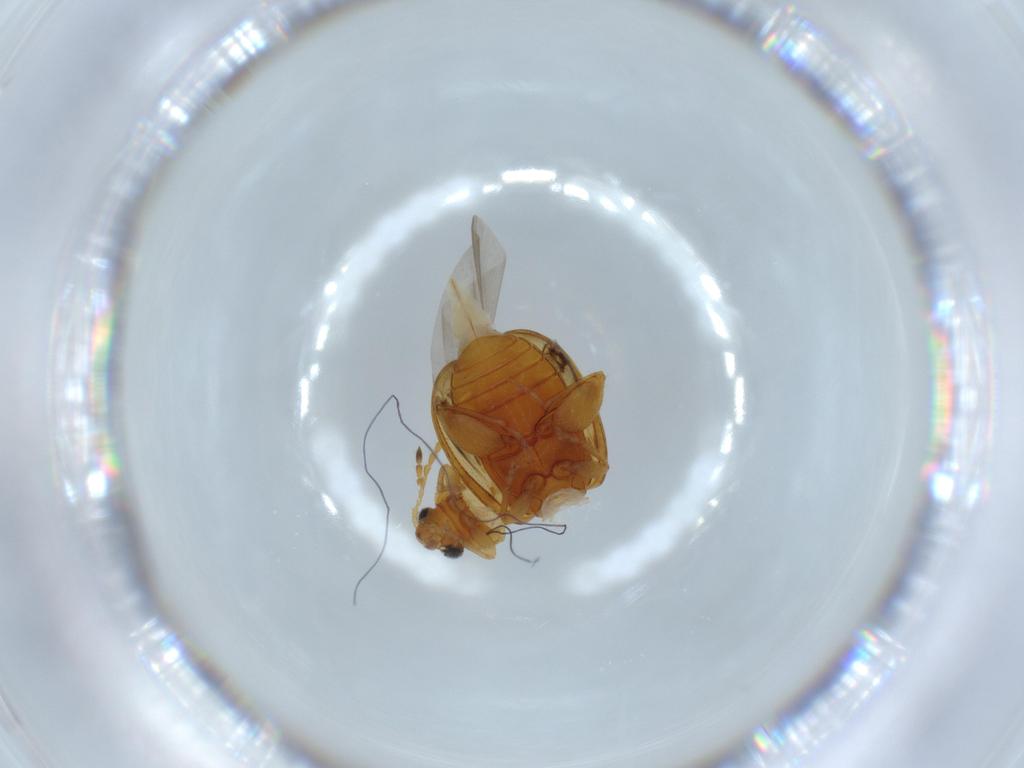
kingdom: Animalia
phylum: Arthropoda
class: Insecta
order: Coleoptera
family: Chrysomelidae
